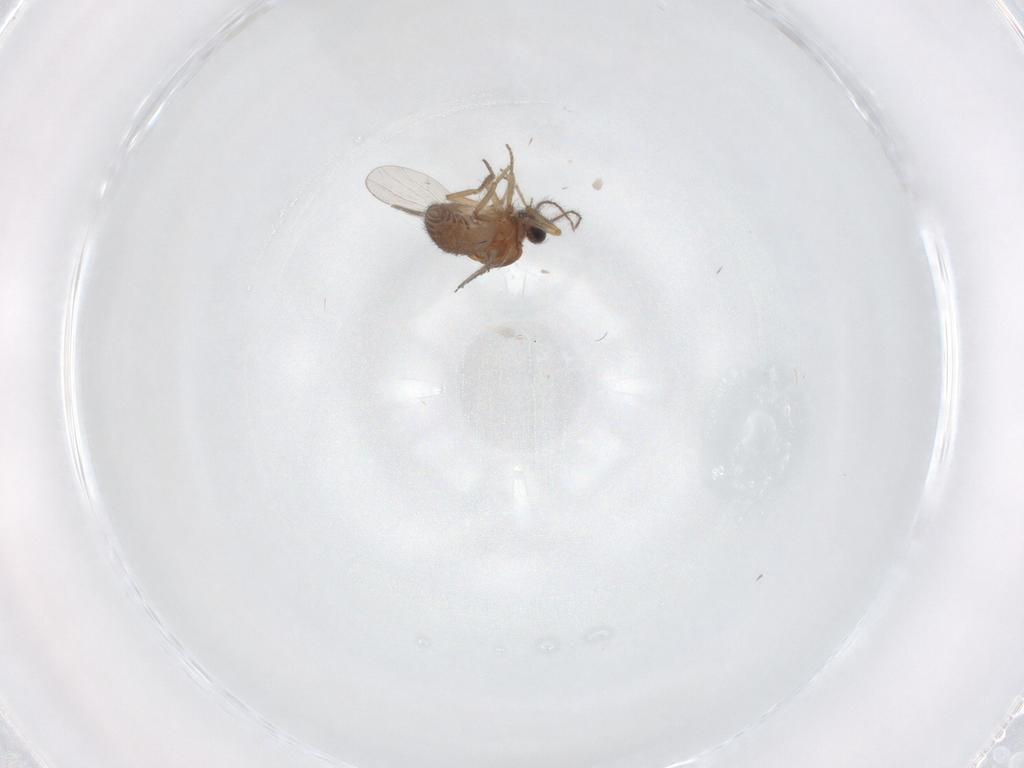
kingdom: Animalia
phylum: Arthropoda
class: Insecta
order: Diptera
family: Ceratopogonidae
